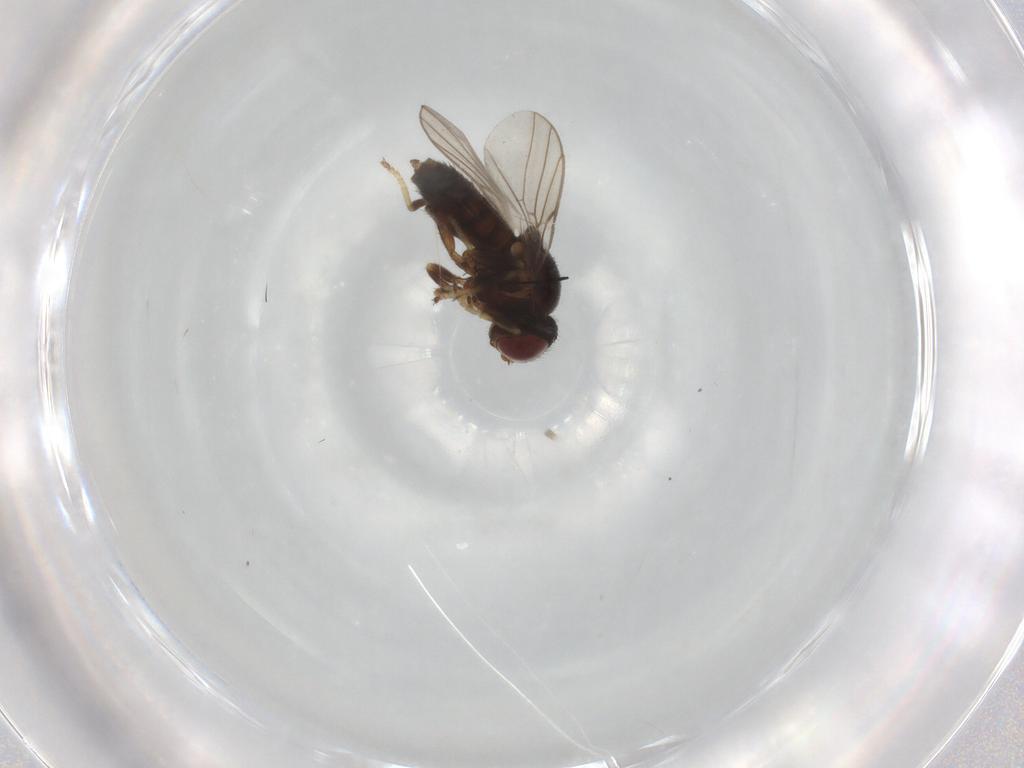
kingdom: Animalia
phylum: Arthropoda
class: Insecta
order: Diptera
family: Chloropidae
